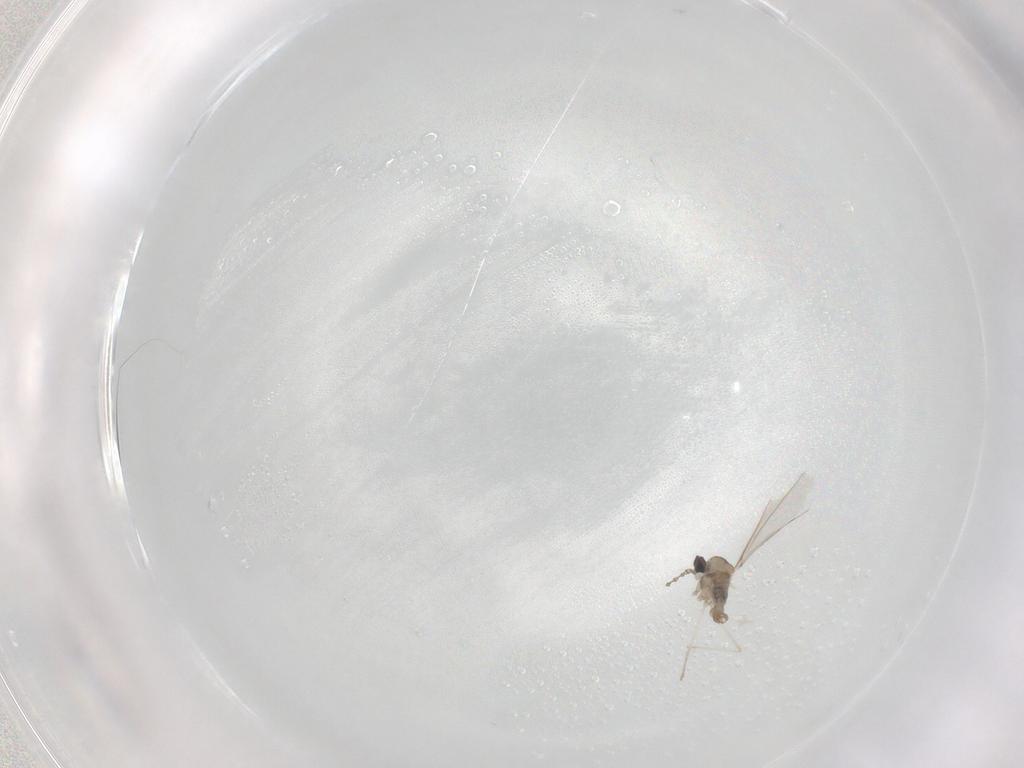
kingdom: Animalia
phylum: Arthropoda
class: Insecta
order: Diptera
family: Cecidomyiidae
